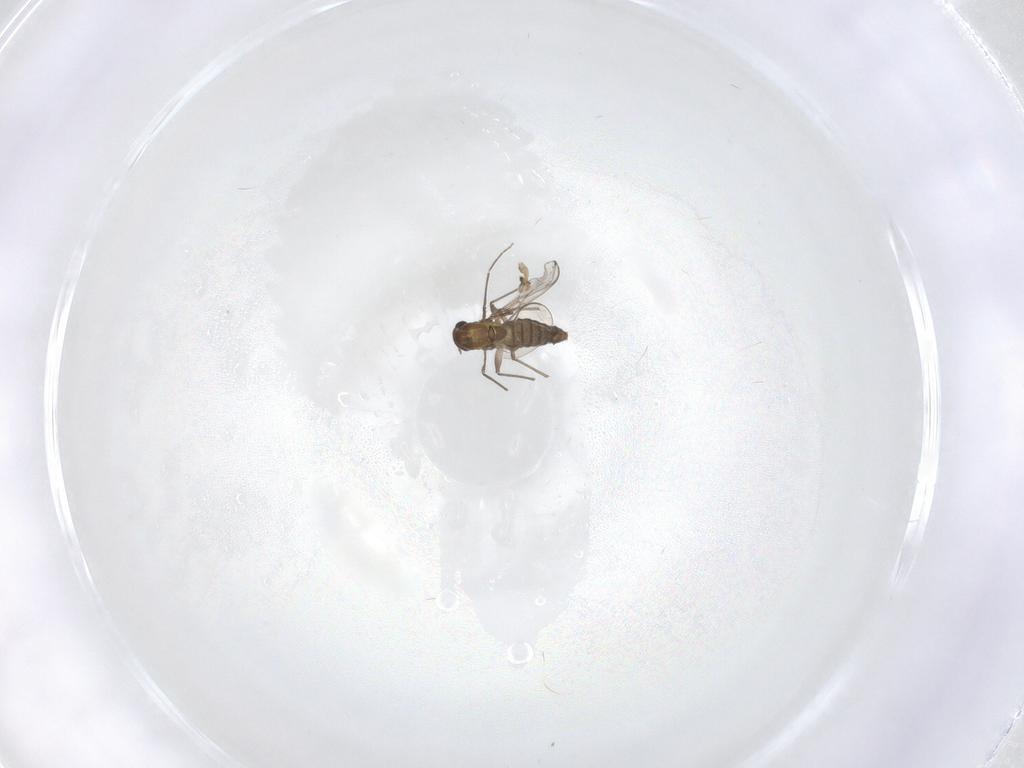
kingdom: Animalia
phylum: Arthropoda
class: Insecta
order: Diptera
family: Chironomidae
